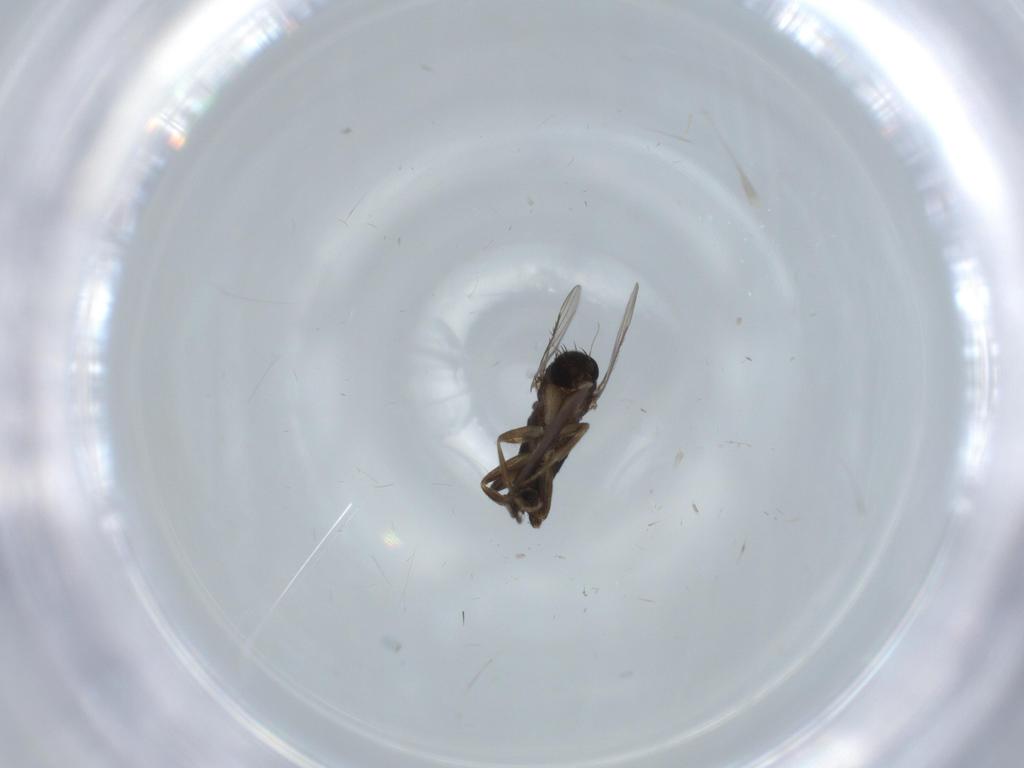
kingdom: Animalia
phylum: Arthropoda
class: Insecta
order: Diptera
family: Phoridae
